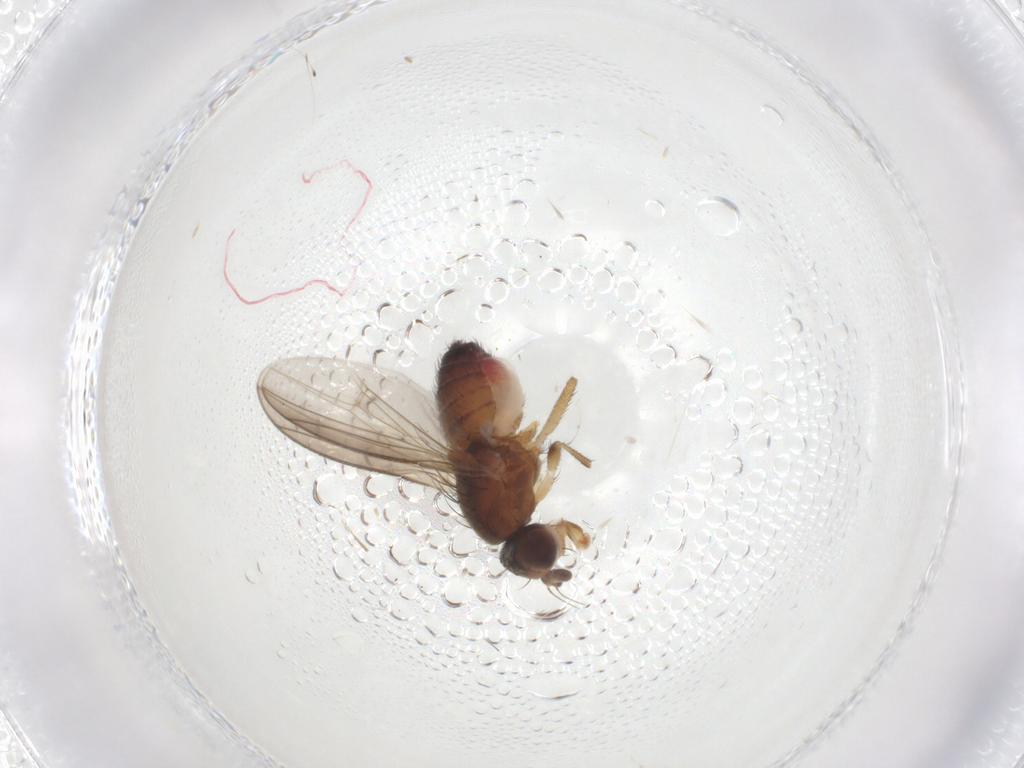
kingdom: Animalia
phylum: Arthropoda
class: Insecta
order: Diptera
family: Heleomyzidae
